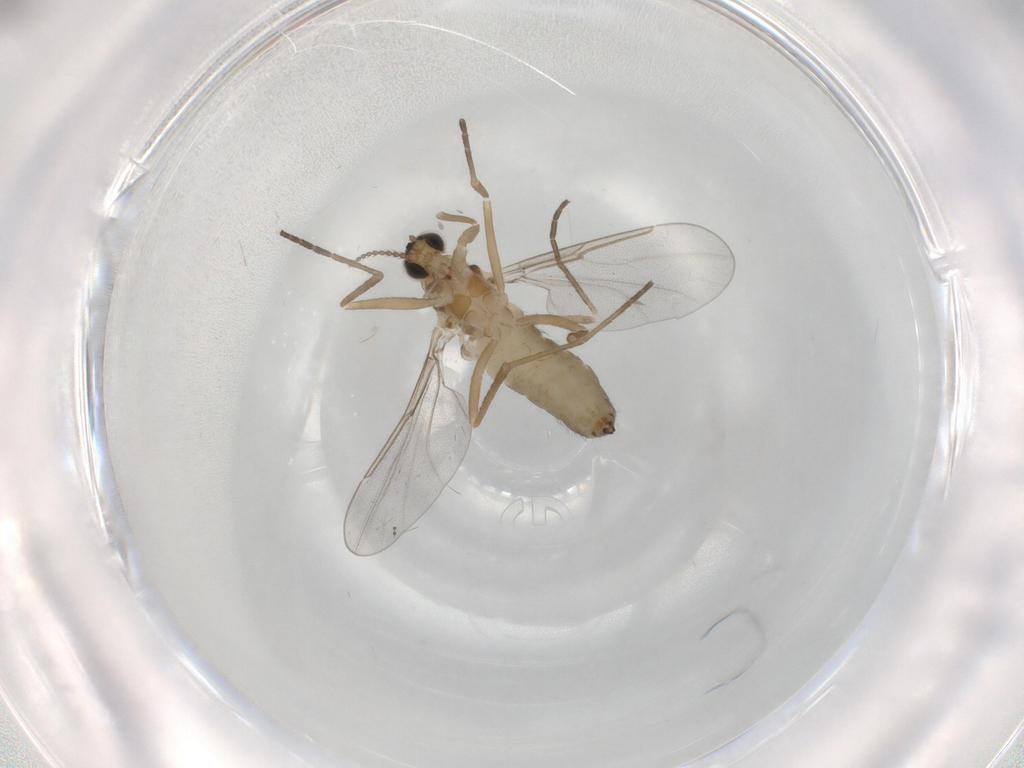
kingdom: Animalia
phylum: Arthropoda
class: Insecta
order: Diptera
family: Cecidomyiidae
